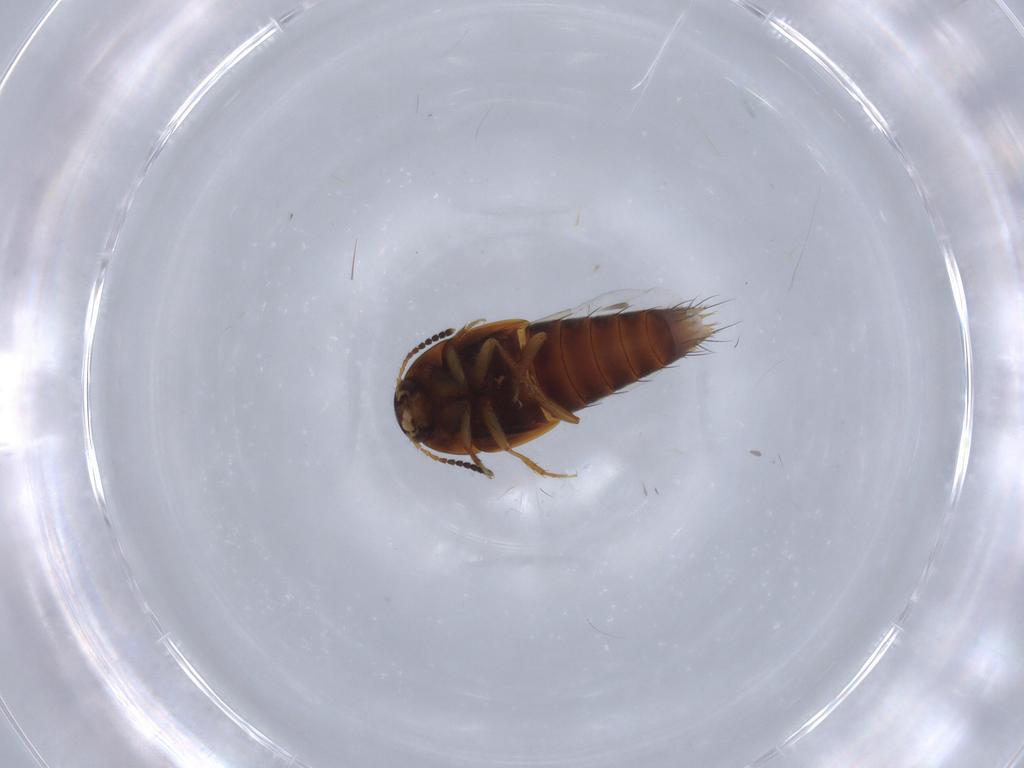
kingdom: Animalia
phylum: Arthropoda
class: Insecta
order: Coleoptera
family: Staphylinidae
